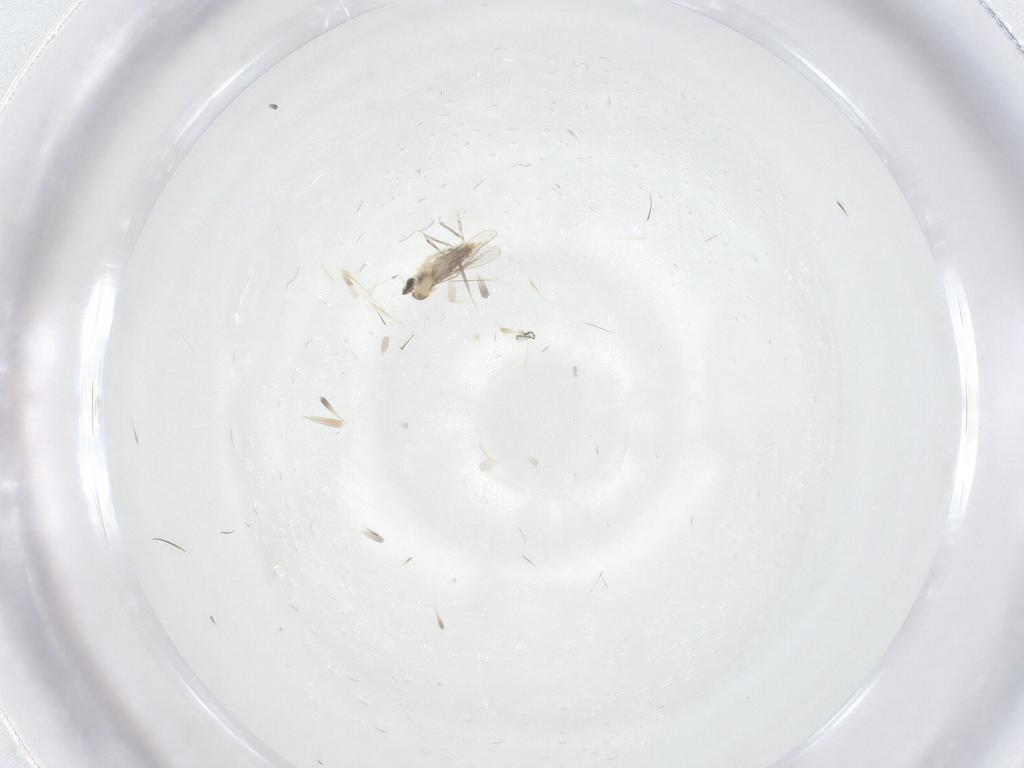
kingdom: Animalia
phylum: Arthropoda
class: Insecta
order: Diptera
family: Cecidomyiidae
